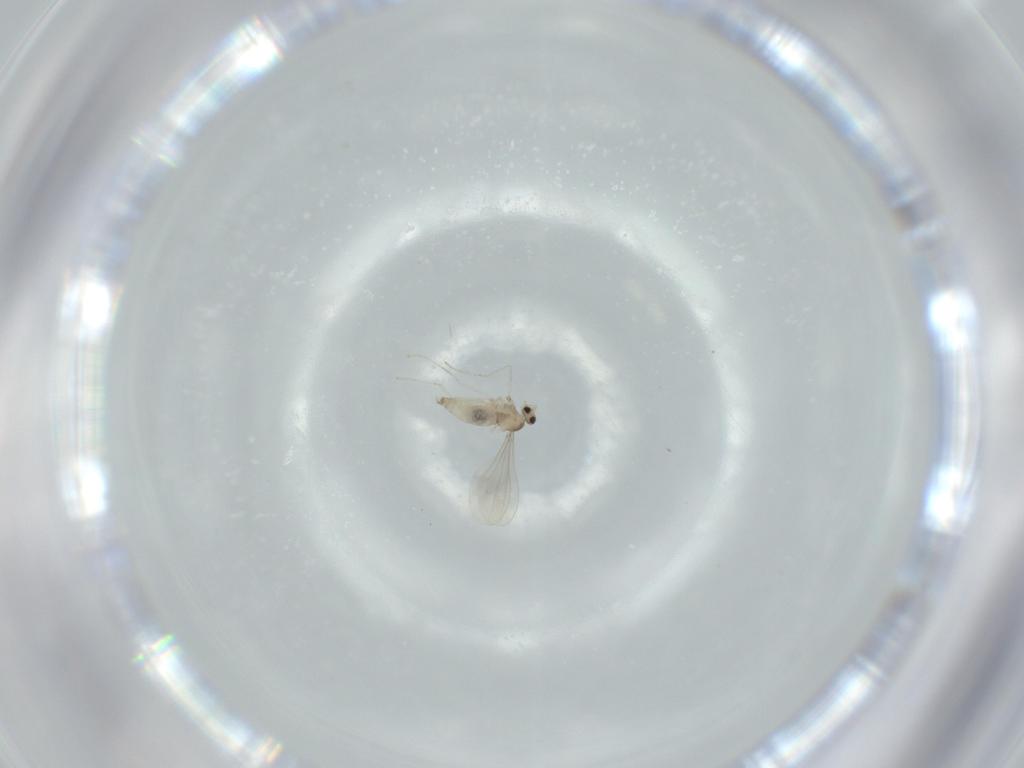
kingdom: Animalia
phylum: Arthropoda
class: Insecta
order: Diptera
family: Cecidomyiidae
